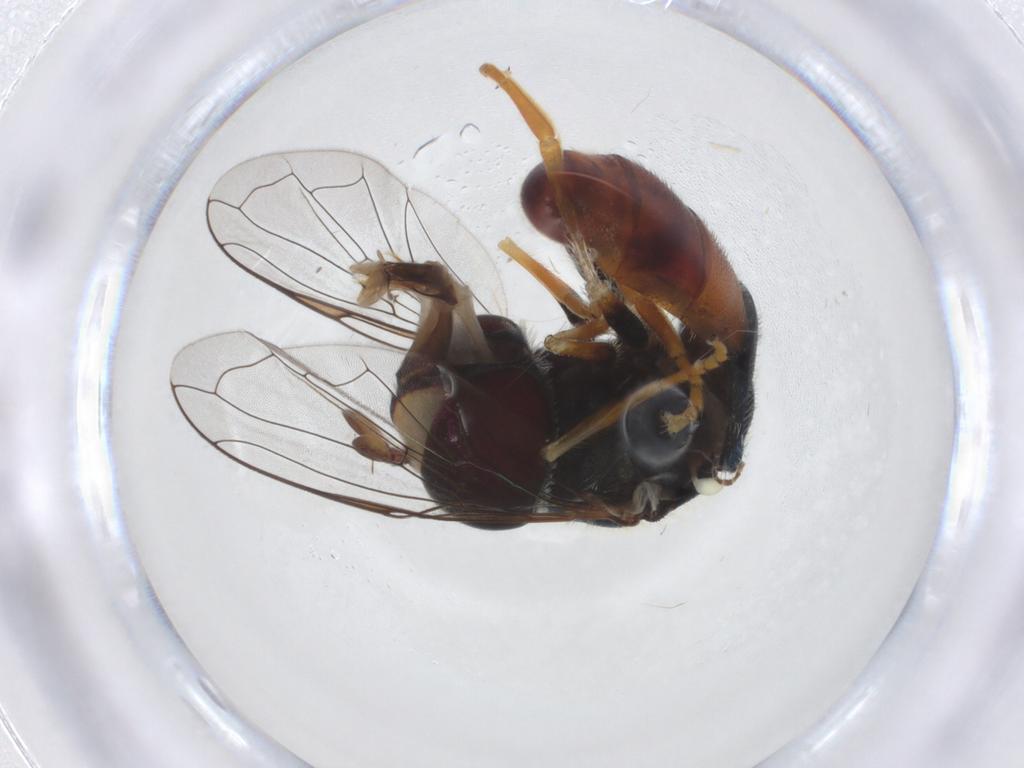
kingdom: Animalia
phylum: Arthropoda
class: Insecta
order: Diptera
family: Syrphidae
